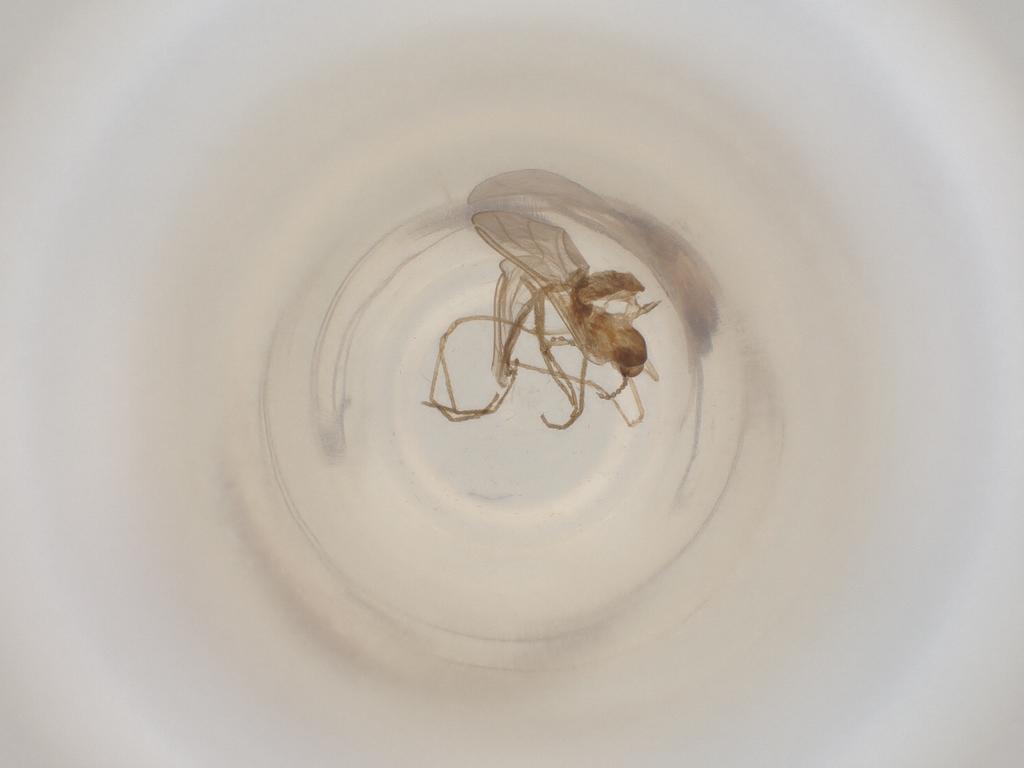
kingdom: Animalia
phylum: Arthropoda
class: Insecta
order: Diptera
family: Cecidomyiidae
